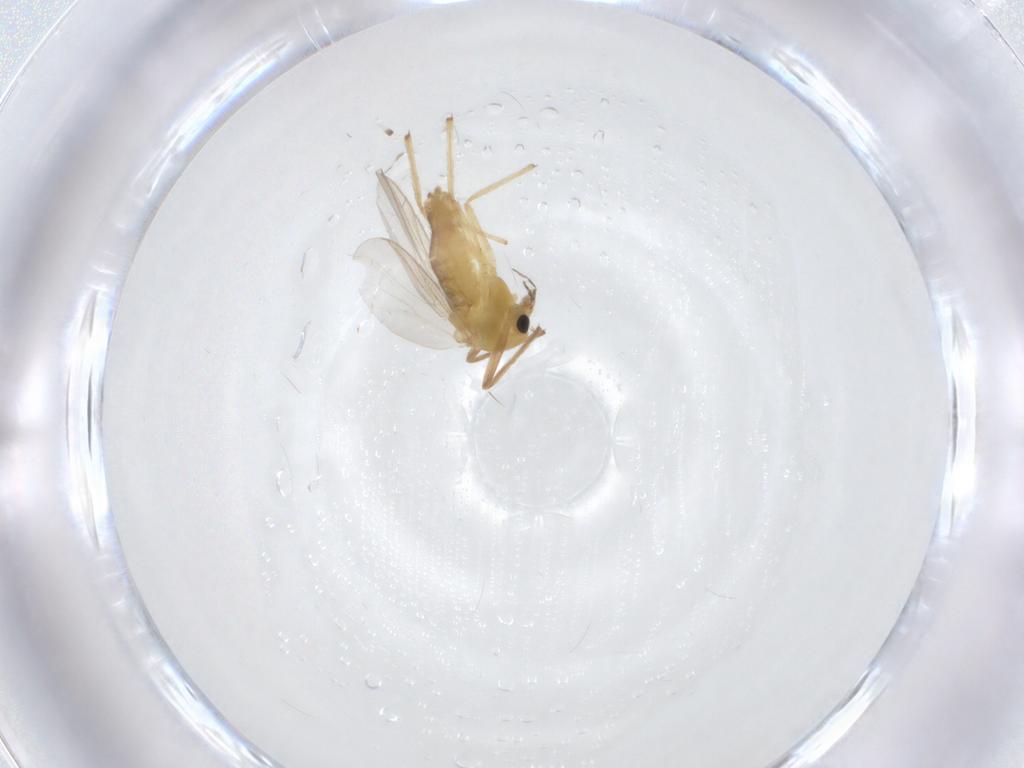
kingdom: Animalia
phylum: Arthropoda
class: Insecta
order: Diptera
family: Chironomidae
